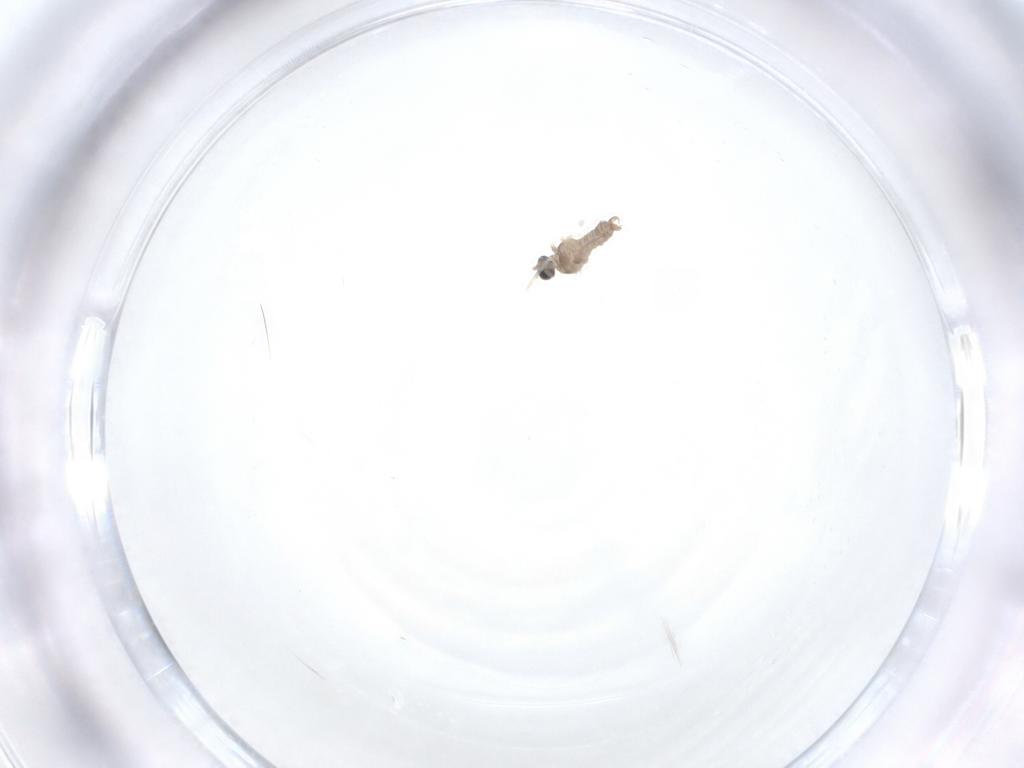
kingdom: Animalia
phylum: Arthropoda
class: Insecta
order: Diptera
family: Cecidomyiidae
